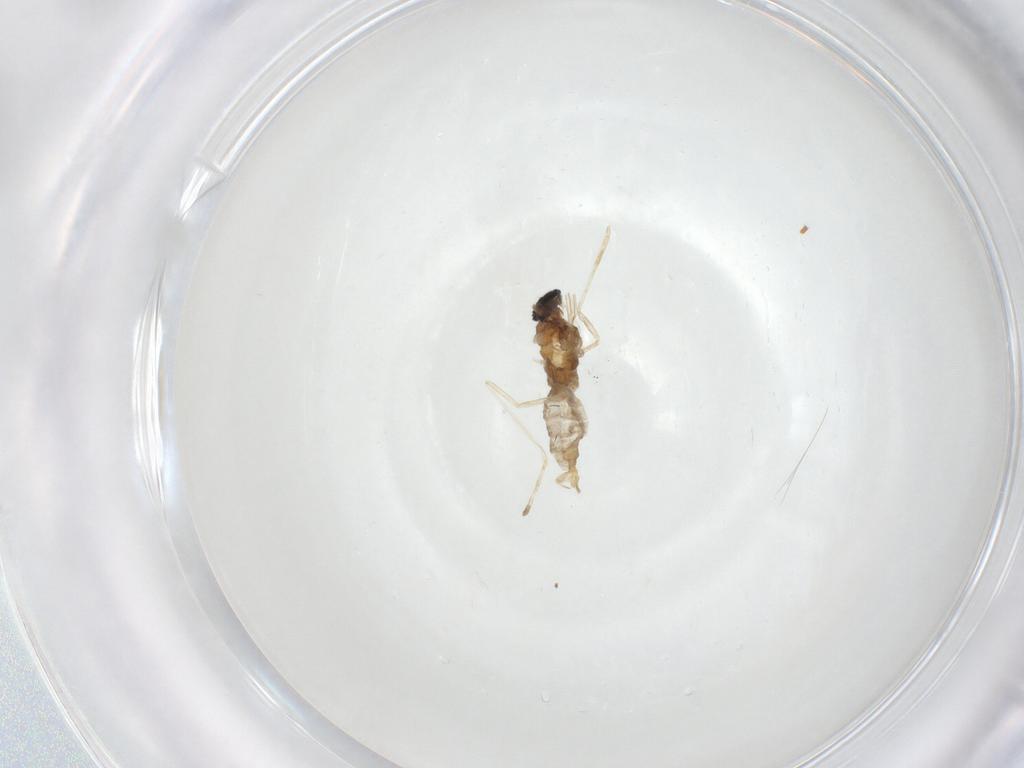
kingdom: Animalia
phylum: Arthropoda
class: Insecta
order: Diptera
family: Cecidomyiidae
